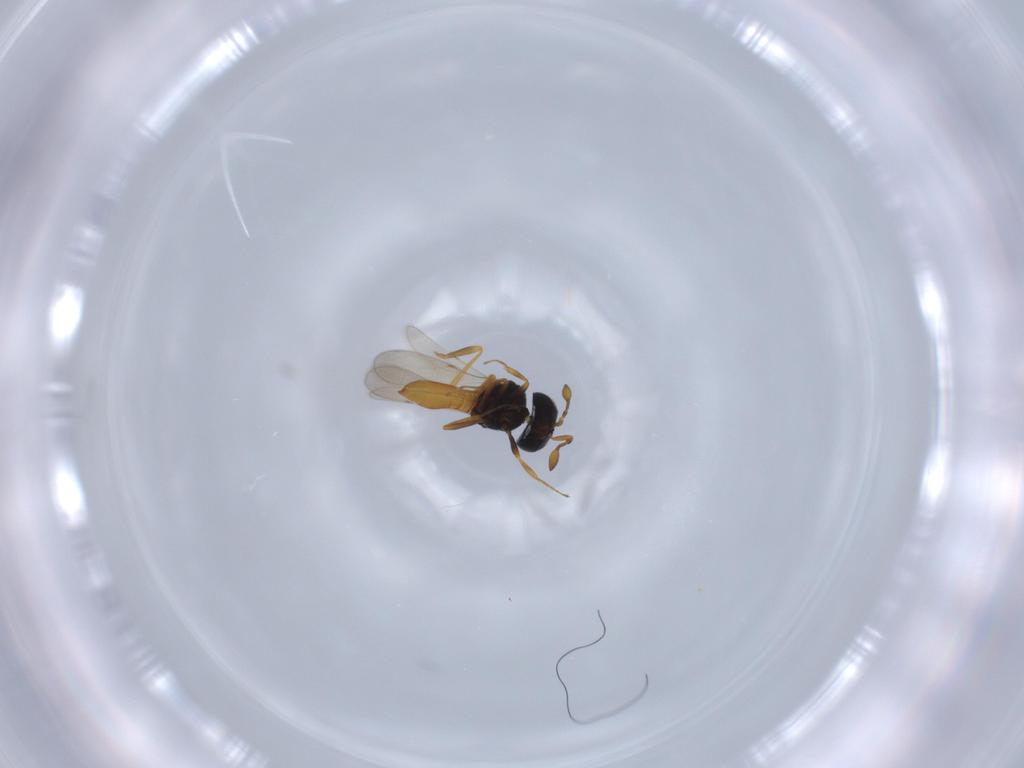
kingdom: Animalia
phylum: Arthropoda
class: Insecta
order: Hymenoptera
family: Scelionidae
